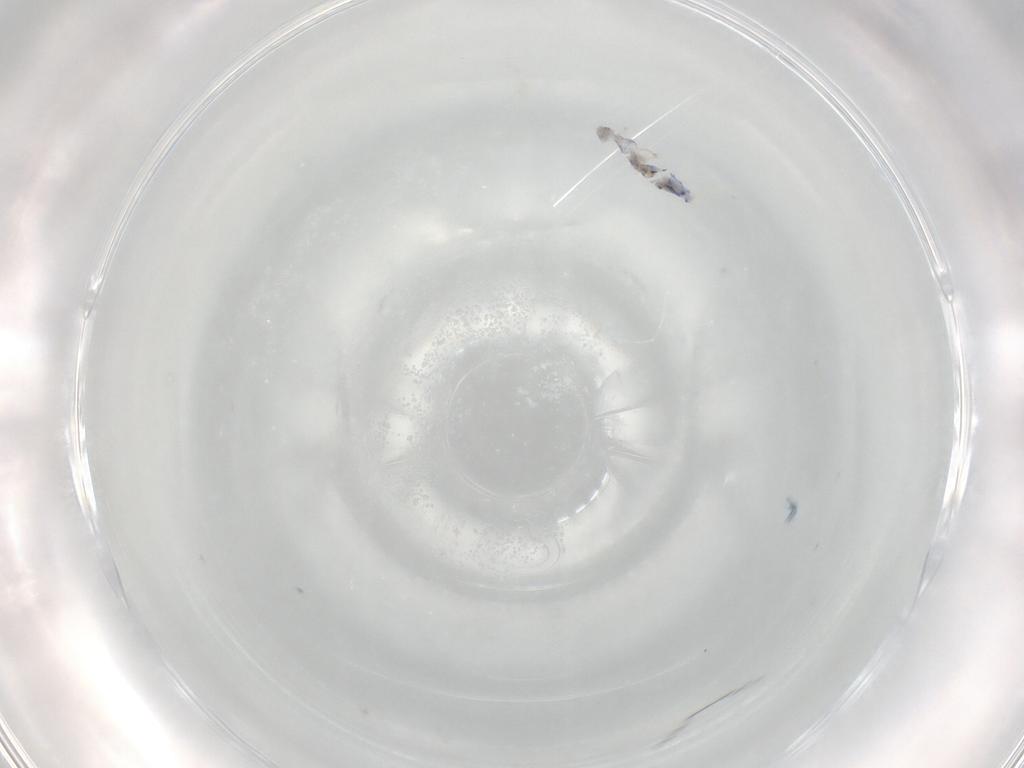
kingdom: Animalia
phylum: Arthropoda
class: Collembola
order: Entomobryomorpha
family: Entomobryidae
